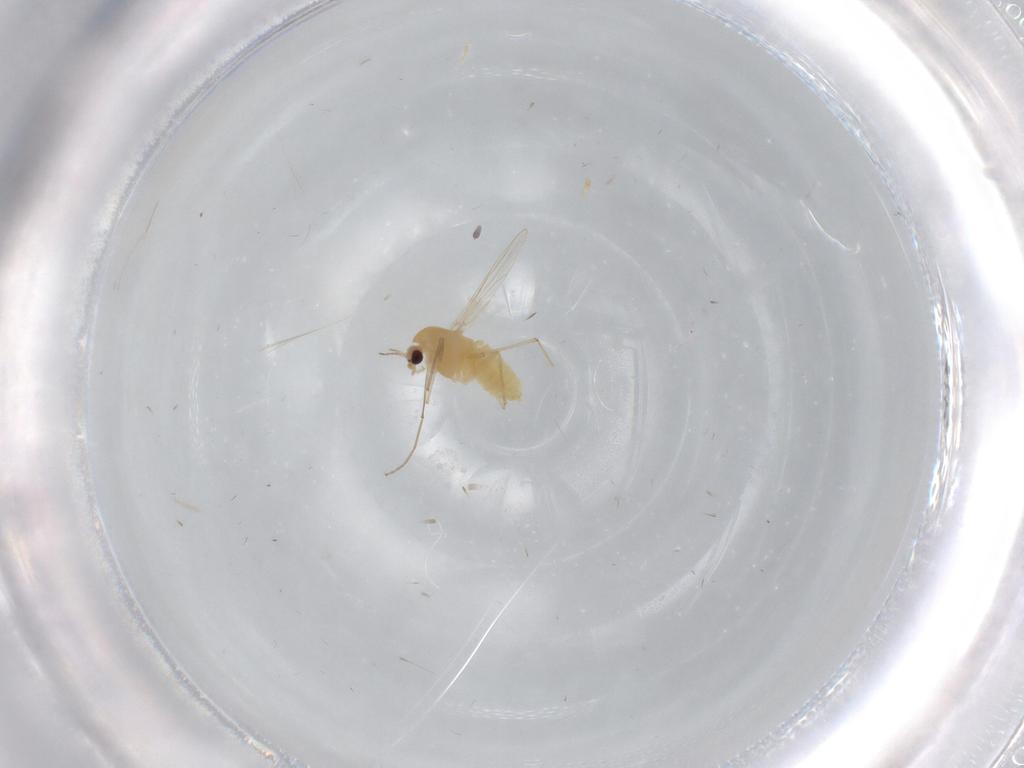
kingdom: Animalia
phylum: Arthropoda
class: Insecta
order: Diptera
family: Chironomidae
